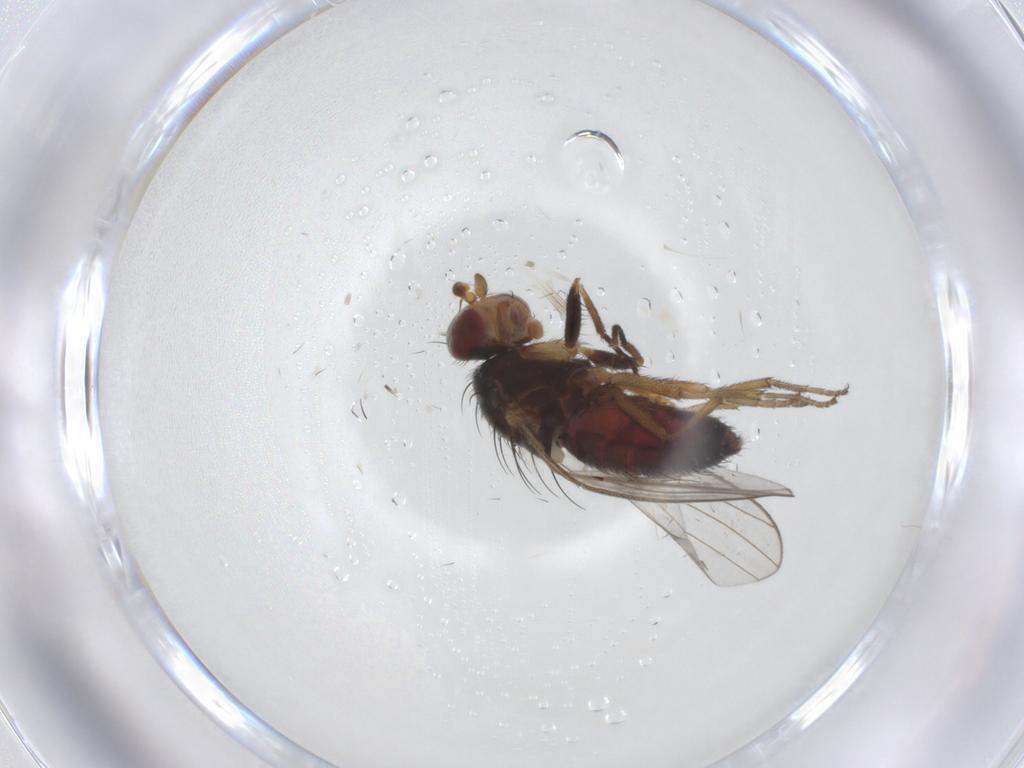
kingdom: Animalia
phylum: Arthropoda
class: Insecta
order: Diptera
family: Heleomyzidae
